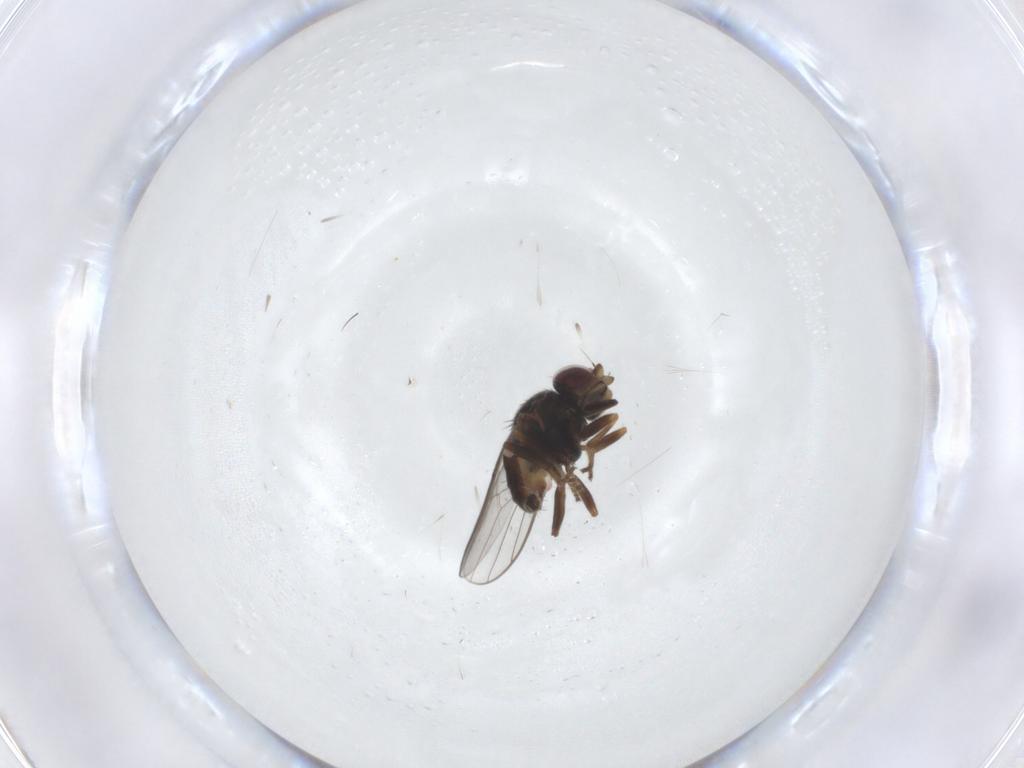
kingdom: Animalia
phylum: Arthropoda
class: Insecta
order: Diptera
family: Chloropidae
